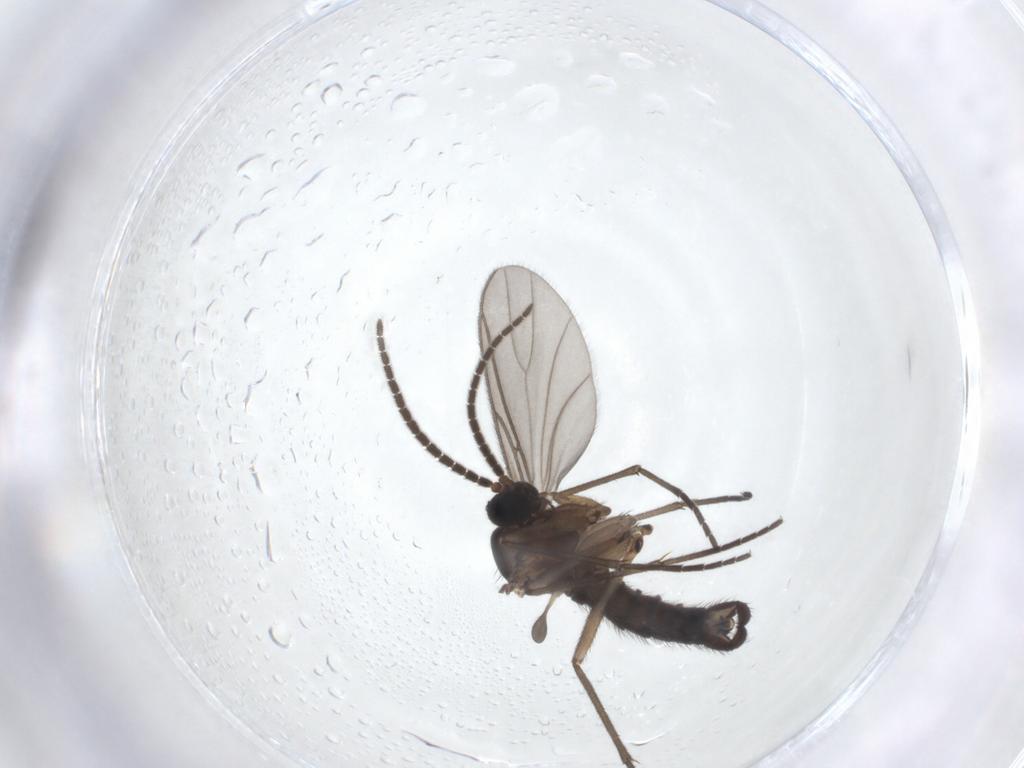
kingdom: Animalia
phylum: Arthropoda
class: Insecta
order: Diptera
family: Sciaridae
